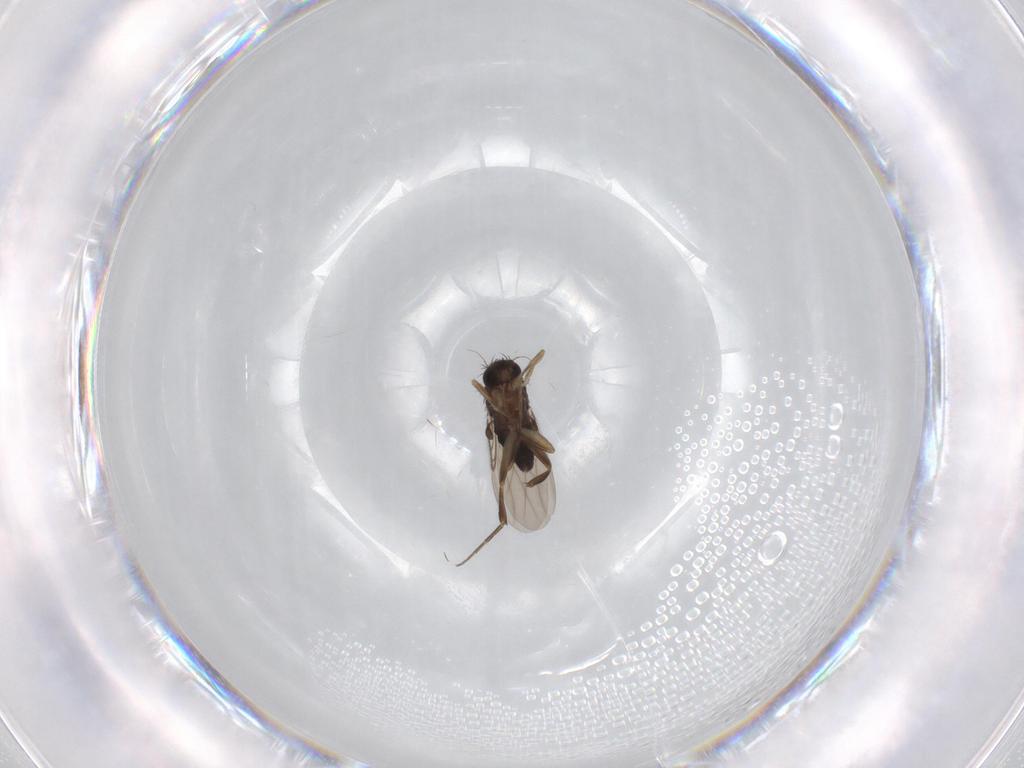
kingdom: Animalia
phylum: Arthropoda
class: Insecta
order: Diptera
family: Phoridae
